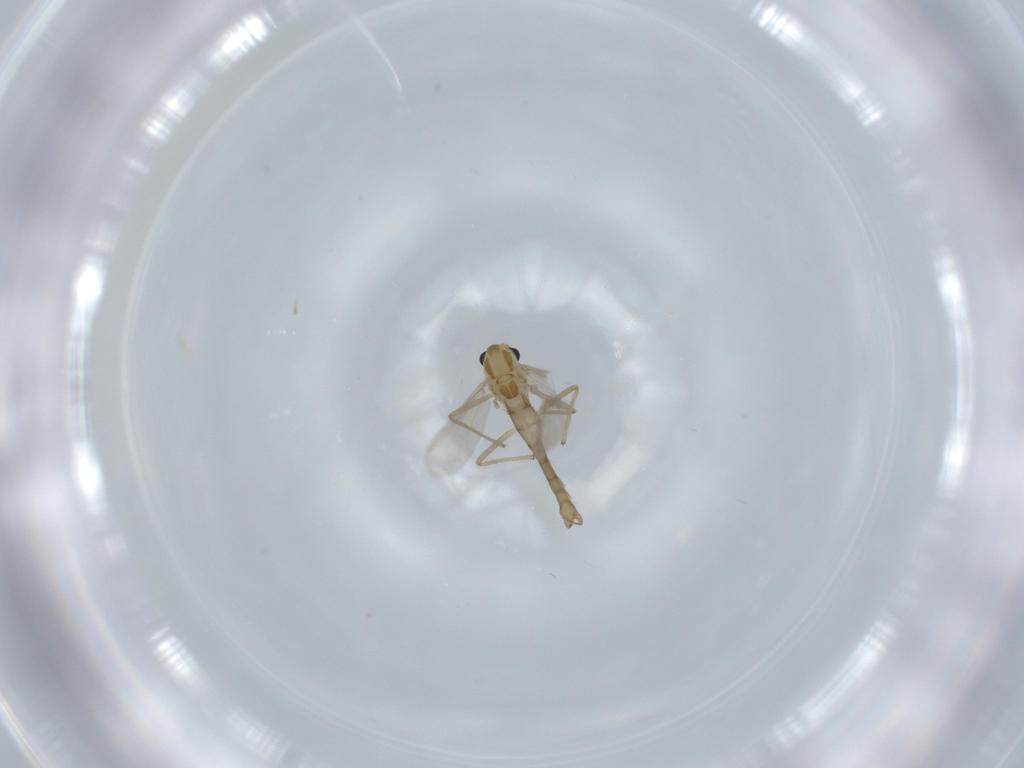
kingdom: Animalia
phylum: Arthropoda
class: Insecta
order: Diptera
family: Chironomidae
